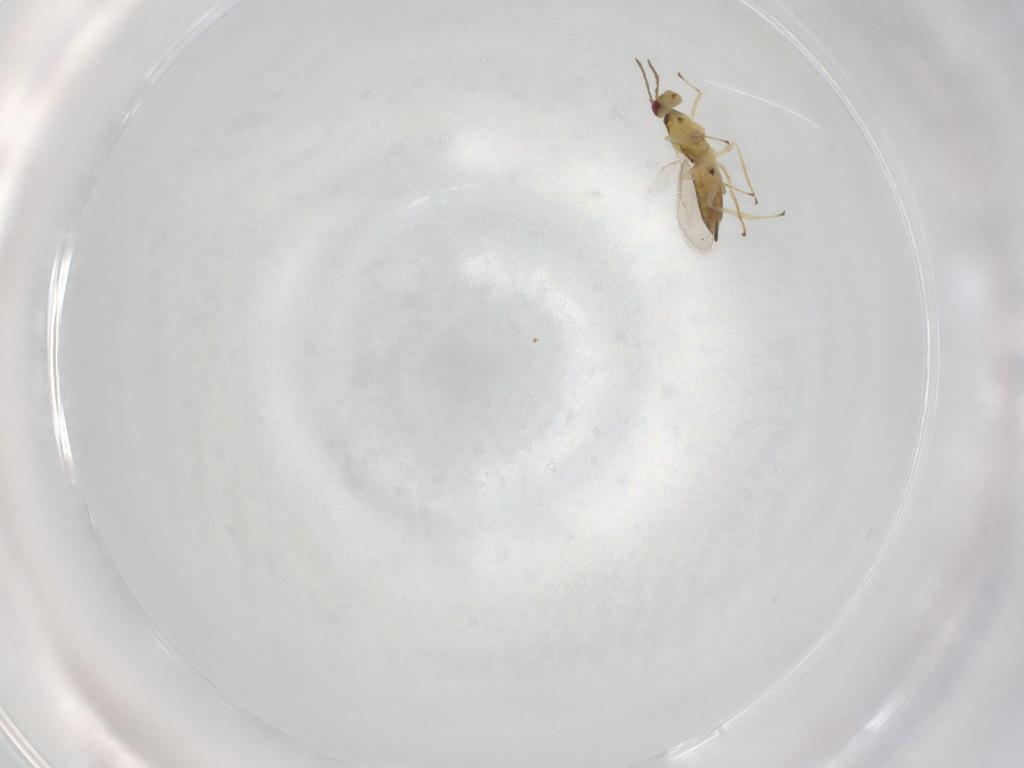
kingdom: Animalia
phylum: Arthropoda
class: Insecta
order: Hymenoptera
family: Eulophidae
